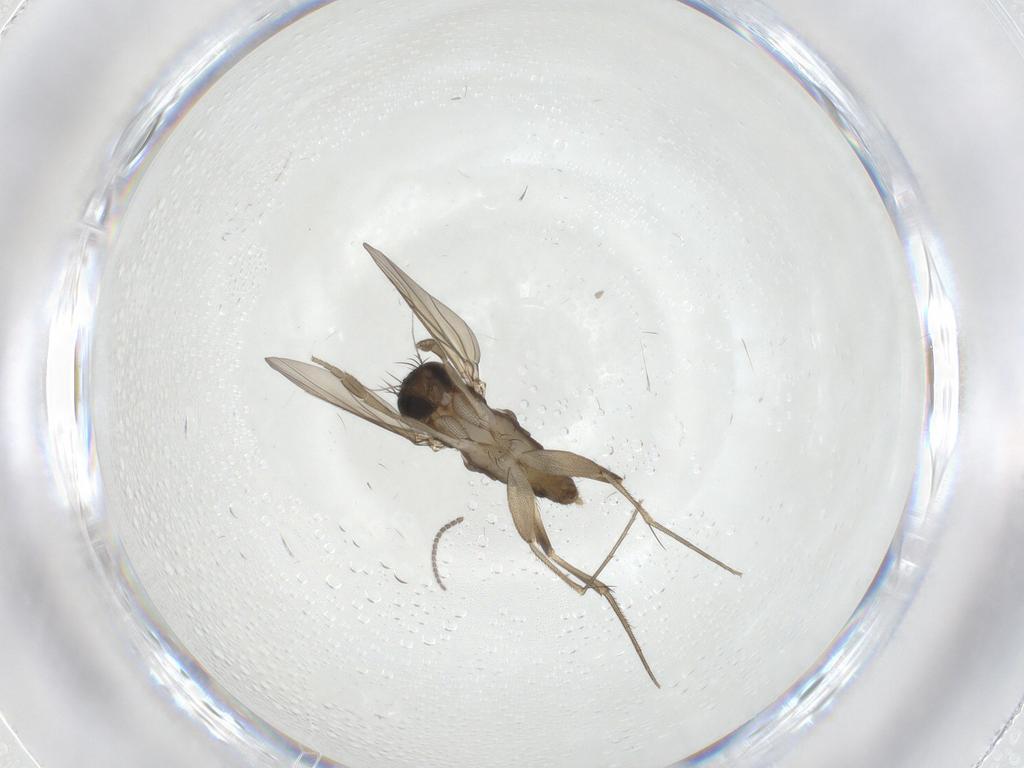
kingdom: Animalia
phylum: Arthropoda
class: Insecta
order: Diptera
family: Phoridae
